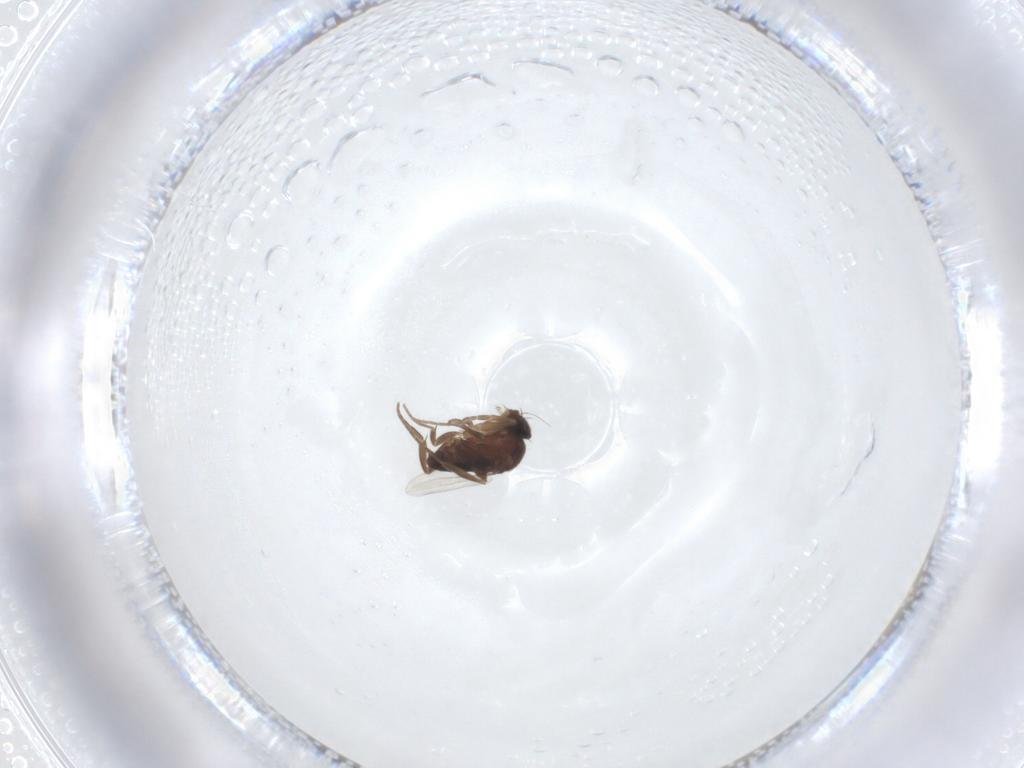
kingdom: Animalia
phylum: Arthropoda
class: Insecta
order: Diptera
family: Phoridae
